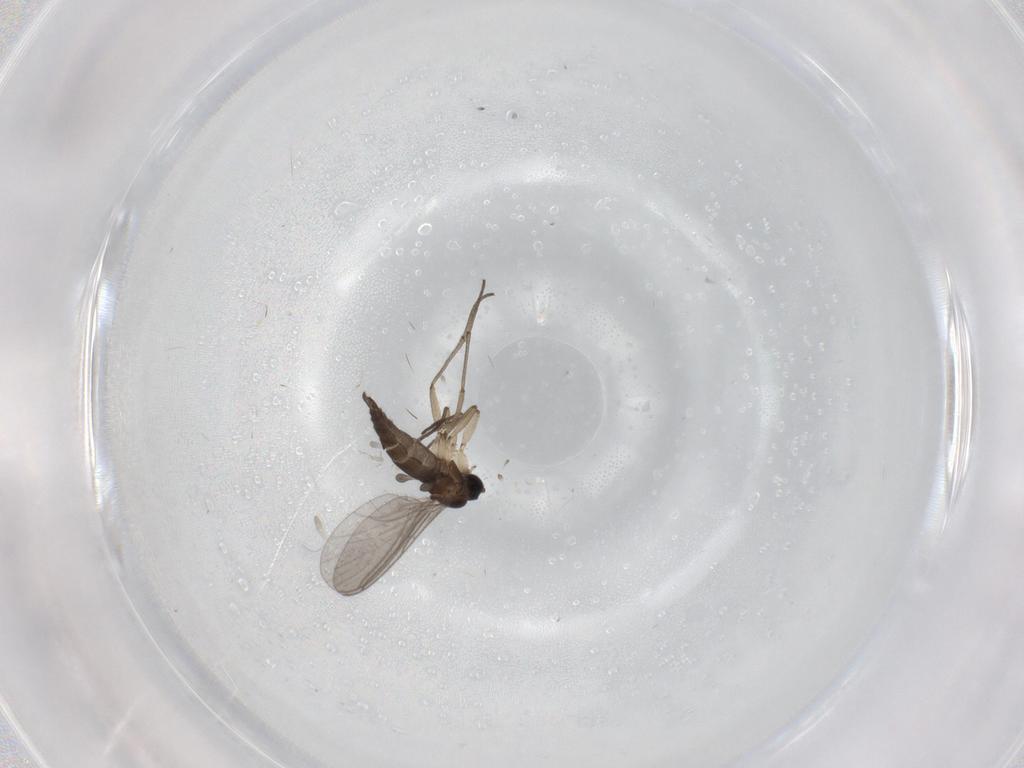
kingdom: Animalia
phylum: Arthropoda
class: Insecta
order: Diptera
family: Sciaridae
